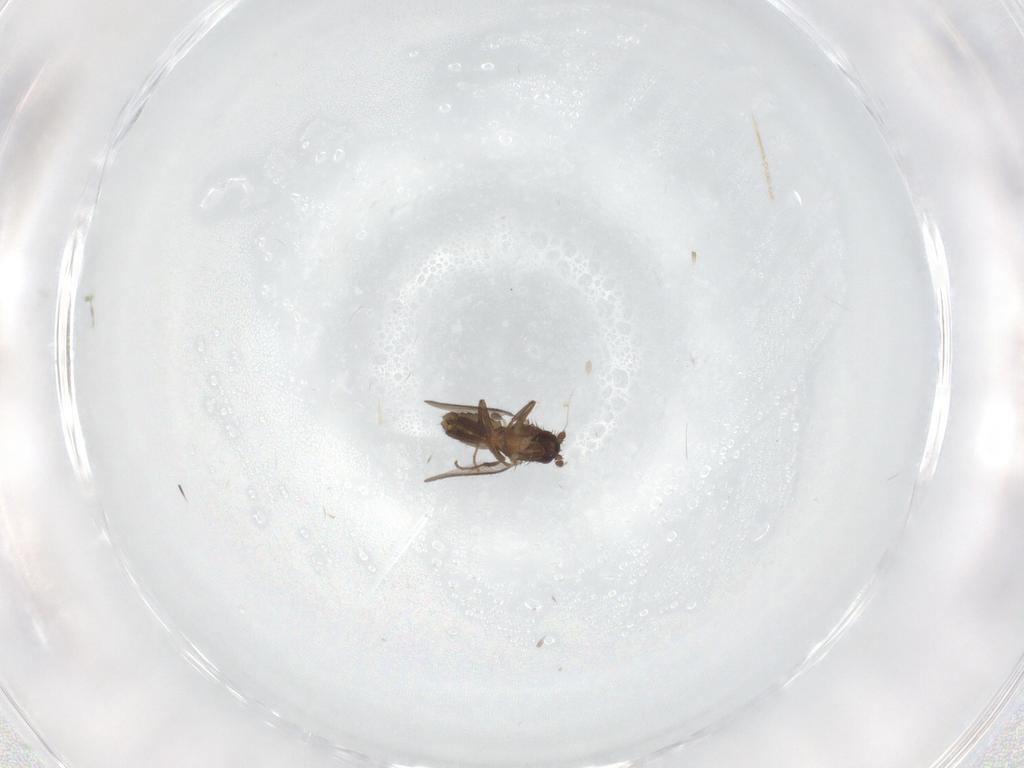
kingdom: Animalia
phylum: Arthropoda
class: Insecta
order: Diptera
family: Sphaeroceridae
